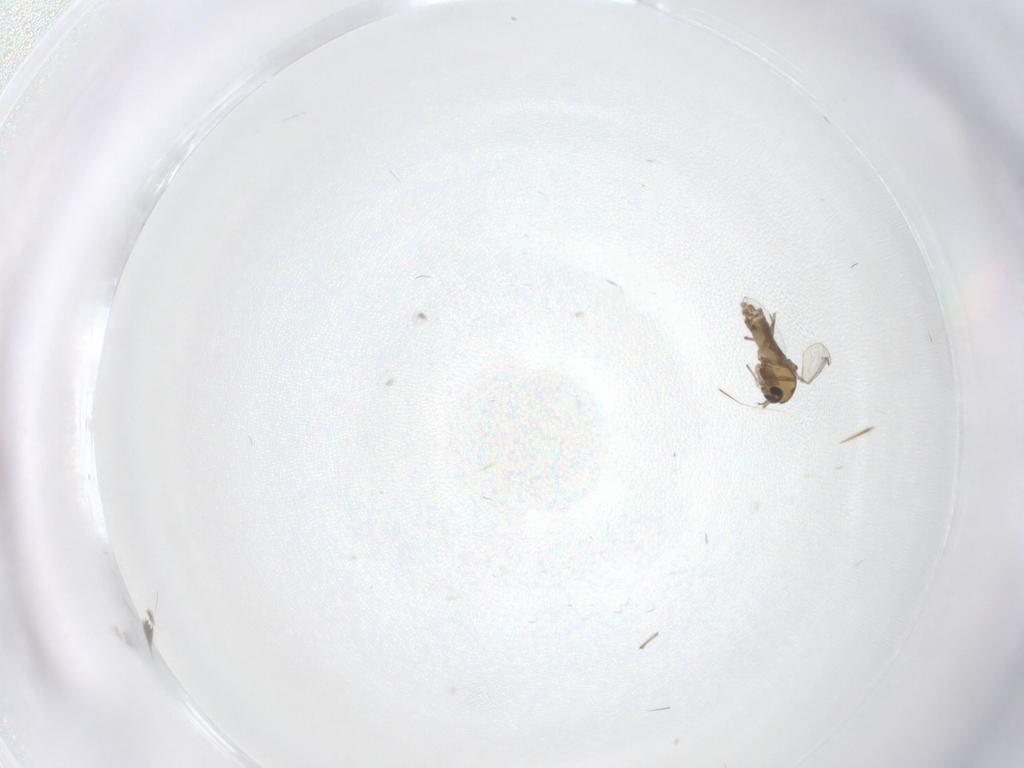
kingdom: Animalia
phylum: Arthropoda
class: Insecta
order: Diptera
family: Chironomidae
